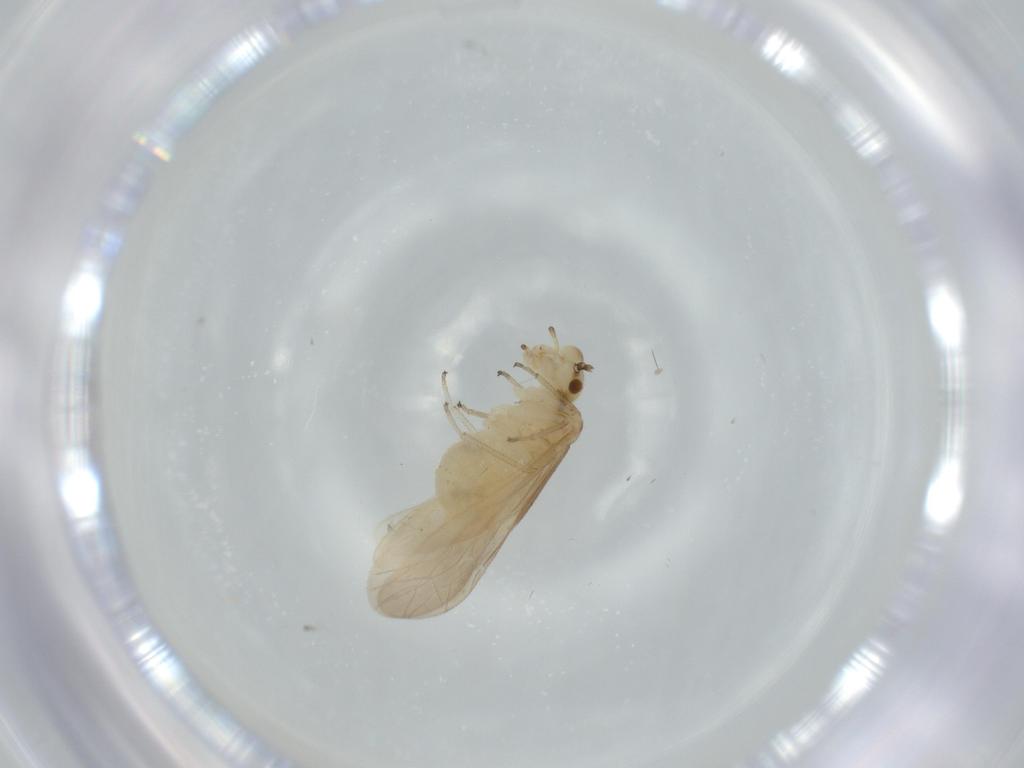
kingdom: Animalia
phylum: Arthropoda
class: Insecta
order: Psocodea
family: Caeciliusidae
